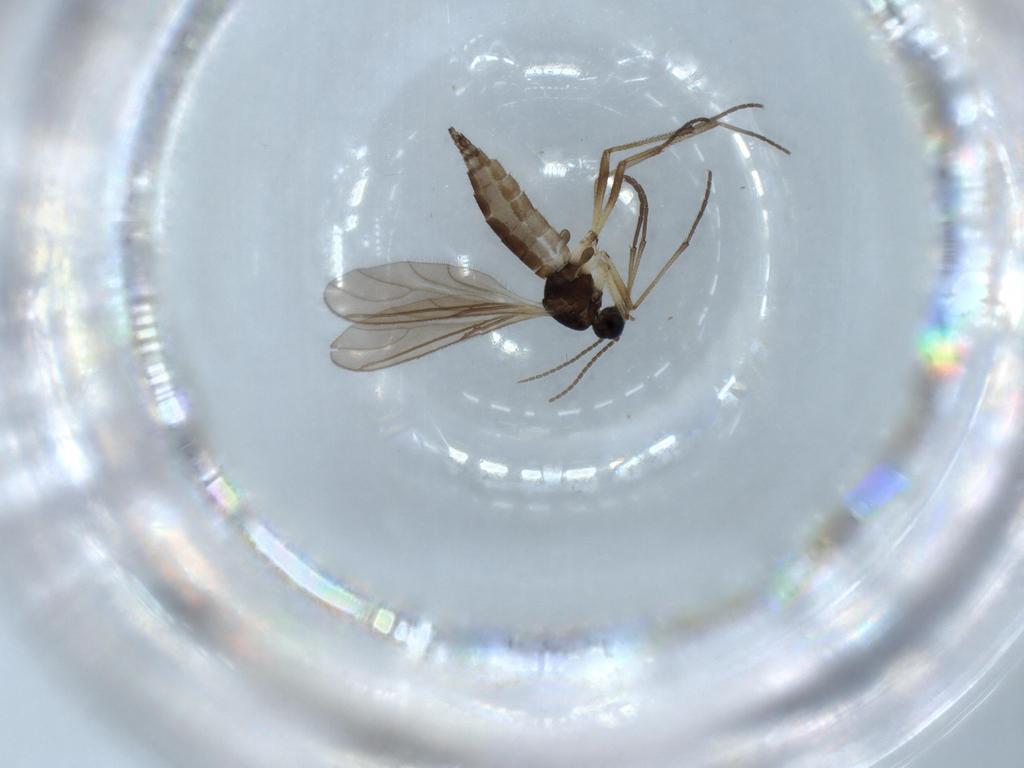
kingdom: Animalia
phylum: Arthropoda
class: Insecta
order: Diptera
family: Sciaridae
